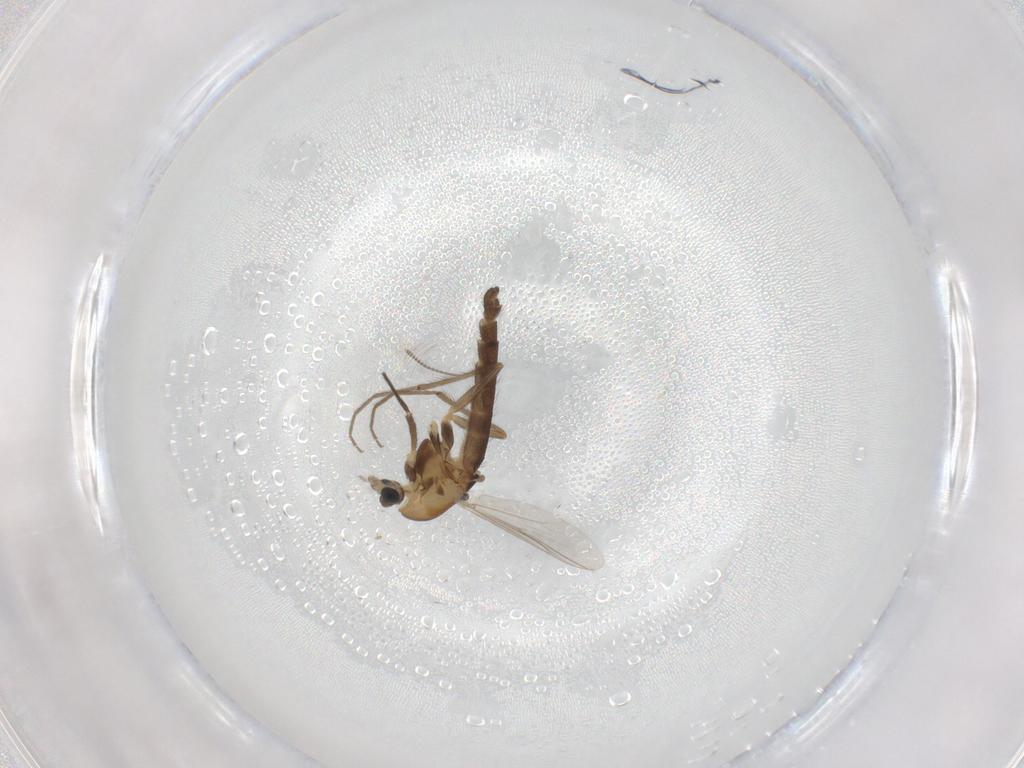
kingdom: Animalia
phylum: Arthropoda
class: Insecta
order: Diptera
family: Chironomidae
